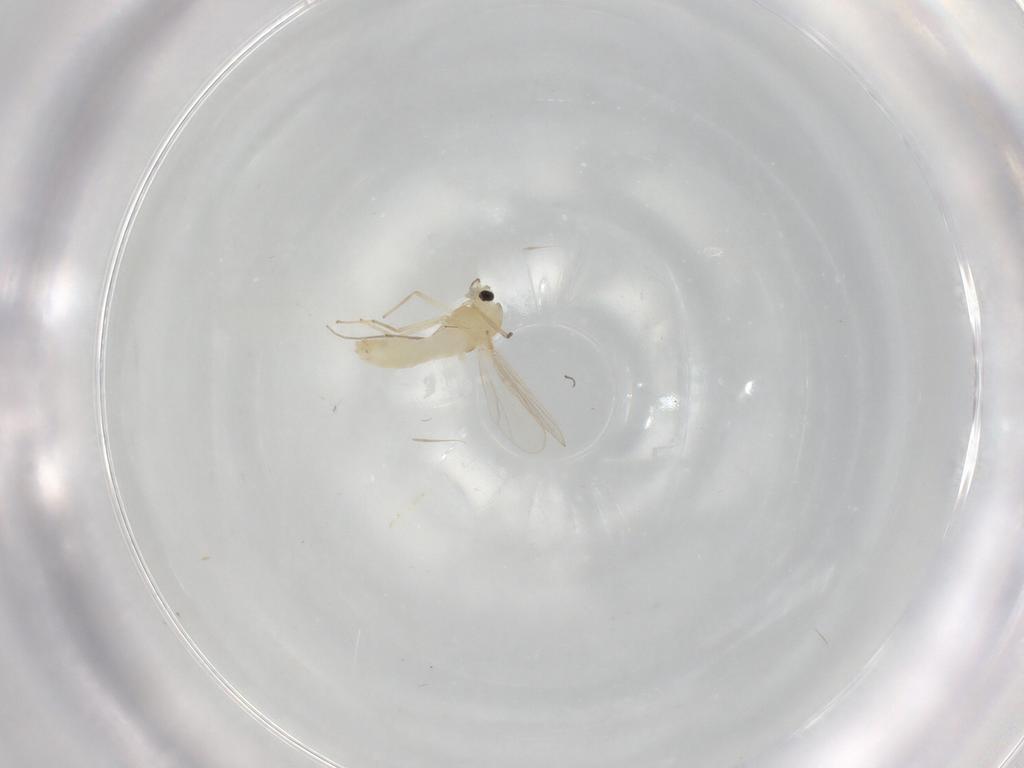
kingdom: Animalia
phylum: Arthropoda
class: Insecta
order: Diptera
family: Chironomidae
